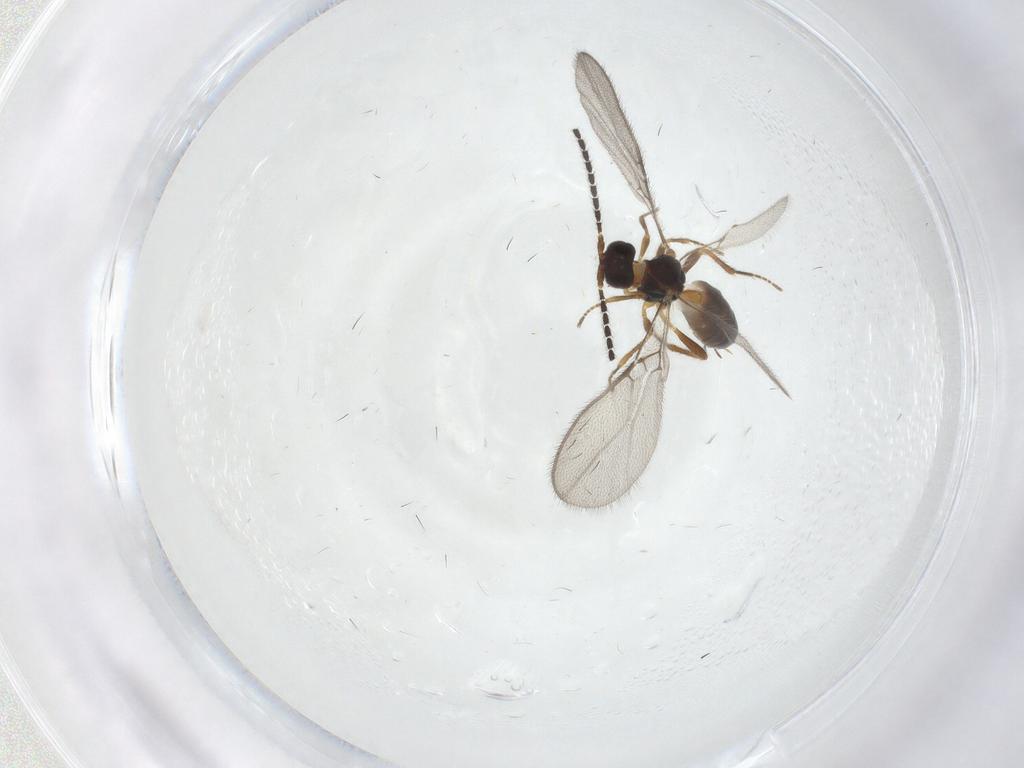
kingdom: Animalia
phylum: Arthropoda
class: Insecta
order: Hymenoptera
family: Braconidae
